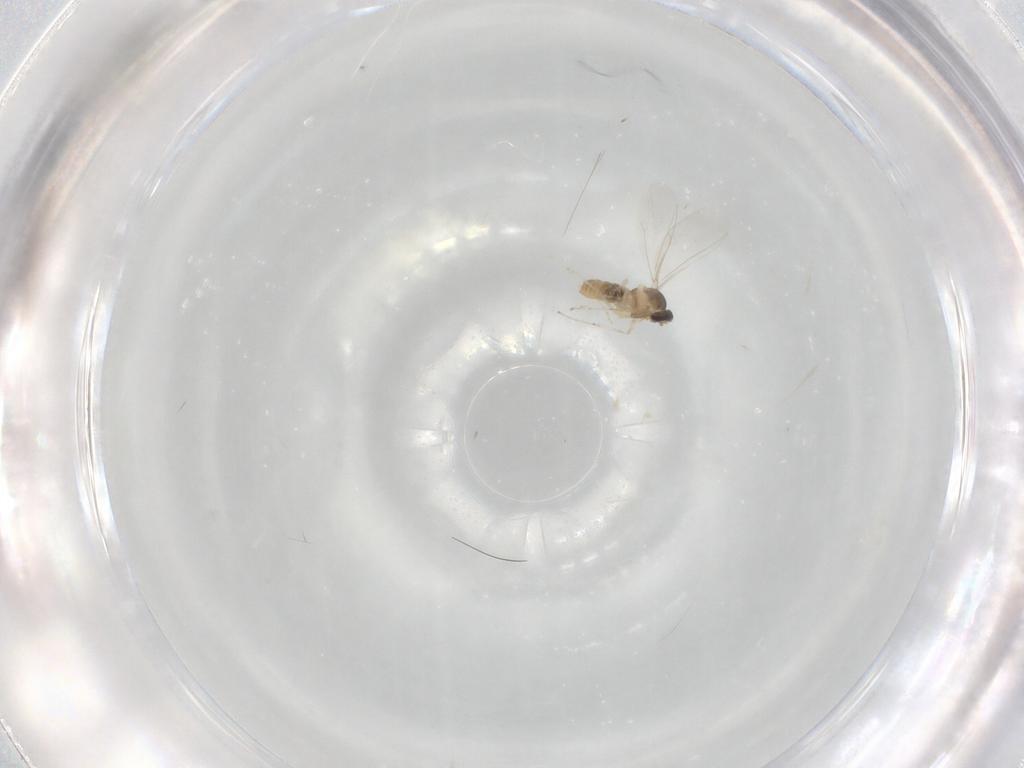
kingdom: Animalia
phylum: Arthropoda
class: Insecta
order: Diptera
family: Cecidomyiidae
